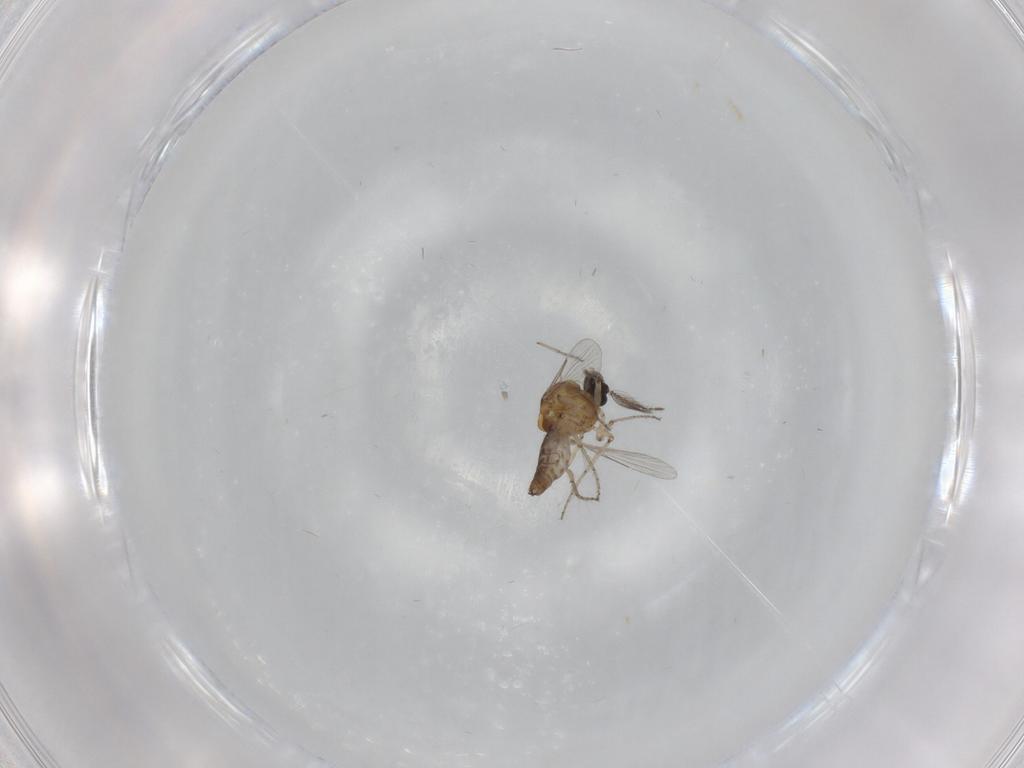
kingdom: Animalia
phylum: Arthropoda
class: Insecta
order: Diptera
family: Ceratopogonidae
